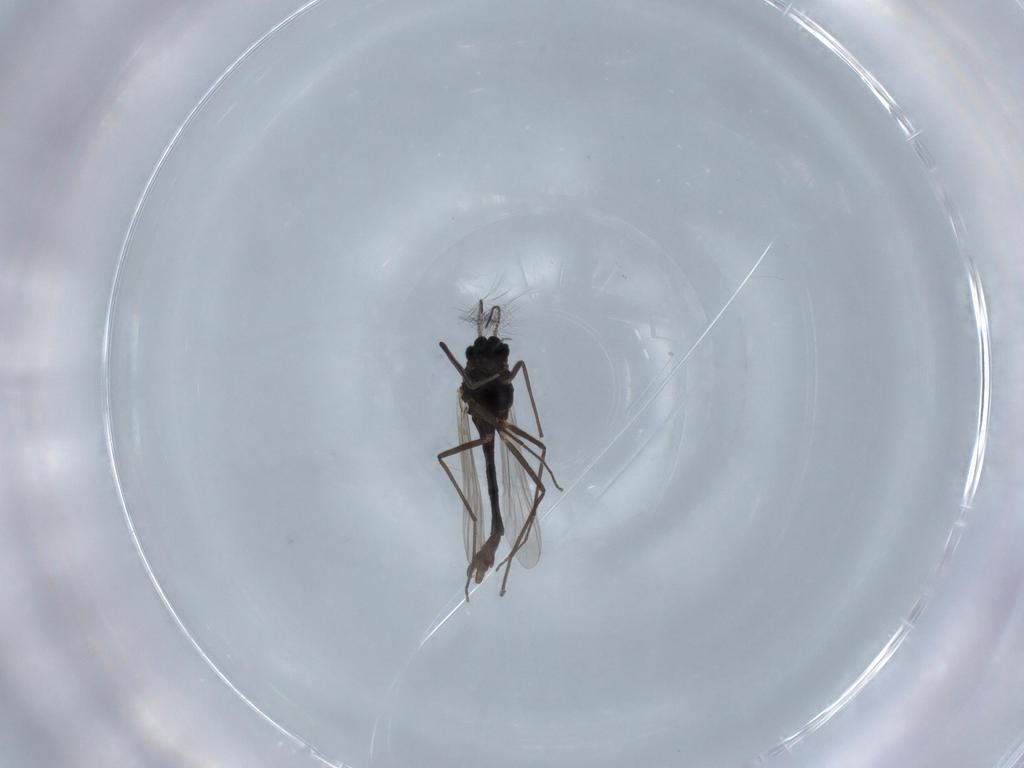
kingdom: Animalia
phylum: Arthropoda
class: Insecta
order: Diptera
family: Chironomidae
